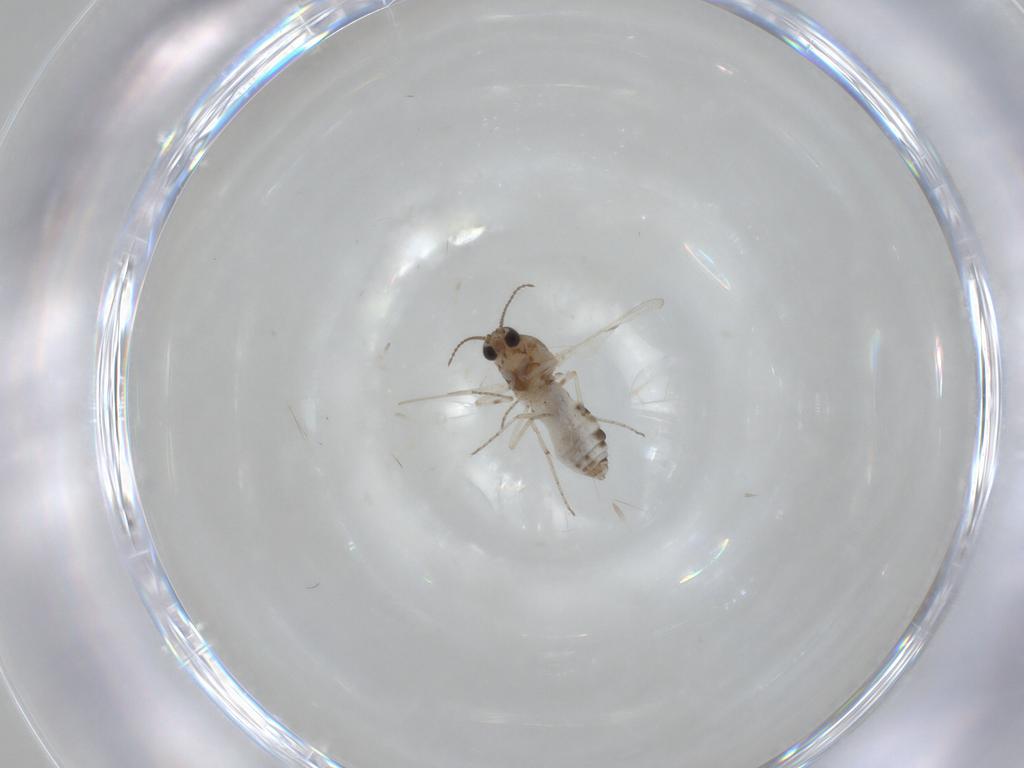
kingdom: Animalia
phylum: Arthropoda
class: Insecta
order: Diptera
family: Ceratopogonidae
